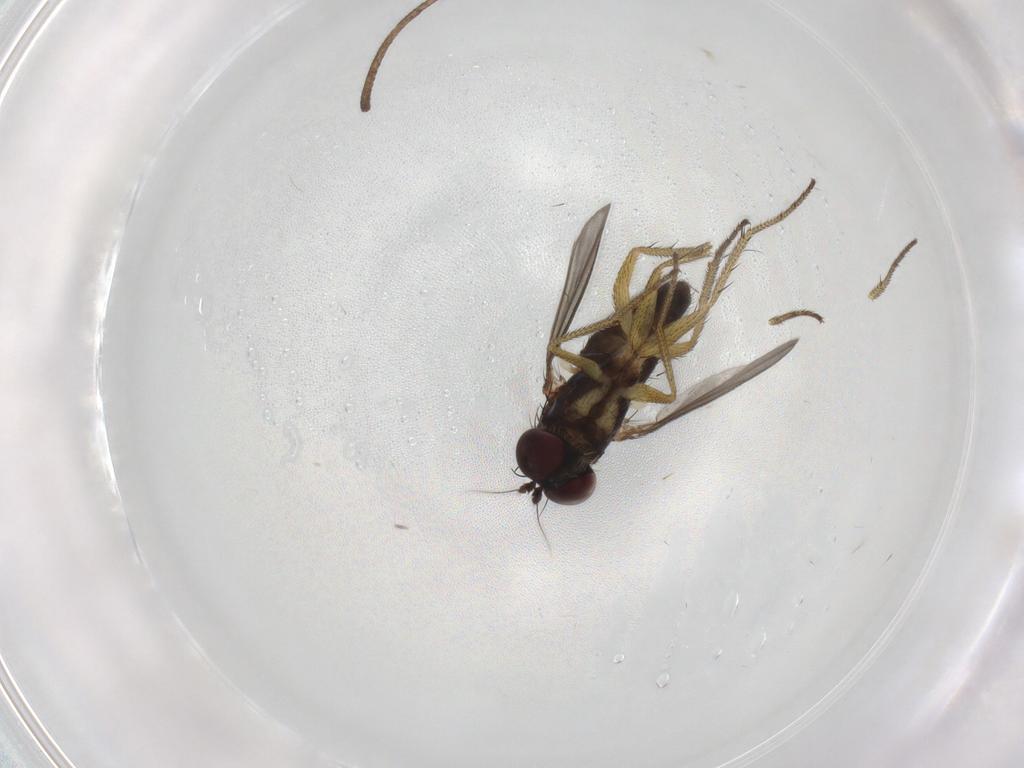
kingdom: Animalia
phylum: Arthropoda
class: Insecta
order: Diptera
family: Dolichopodidae
